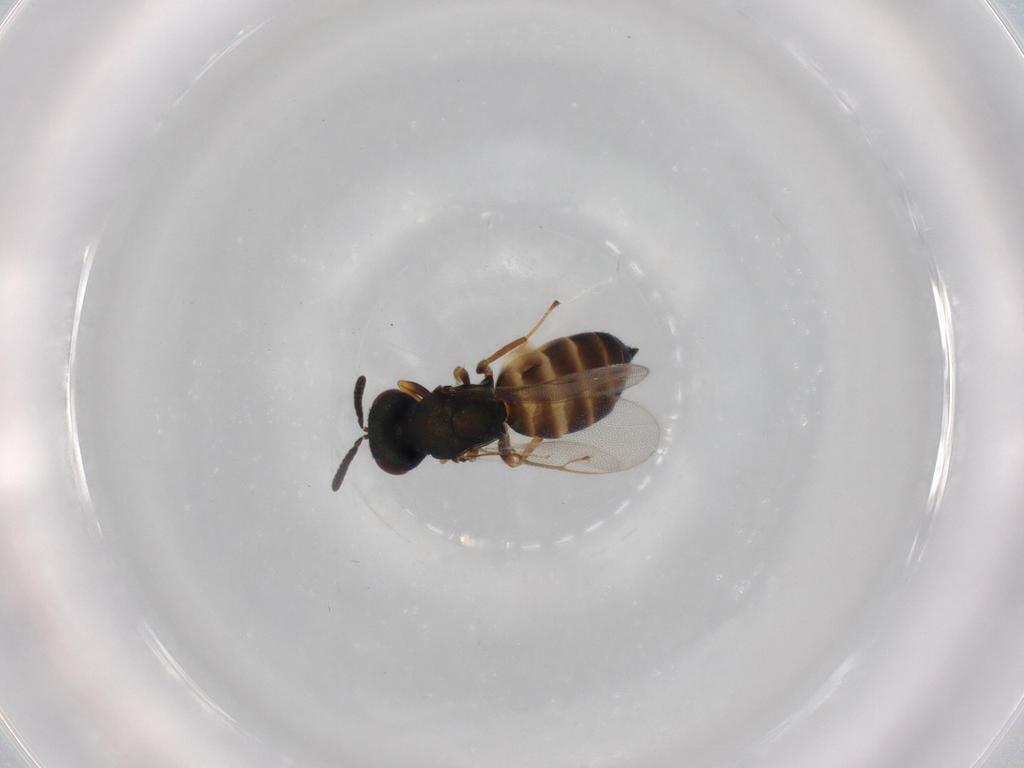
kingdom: Animalia
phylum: Arthropoda
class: Insecta
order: Hymenoptera
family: Pteromalidae
